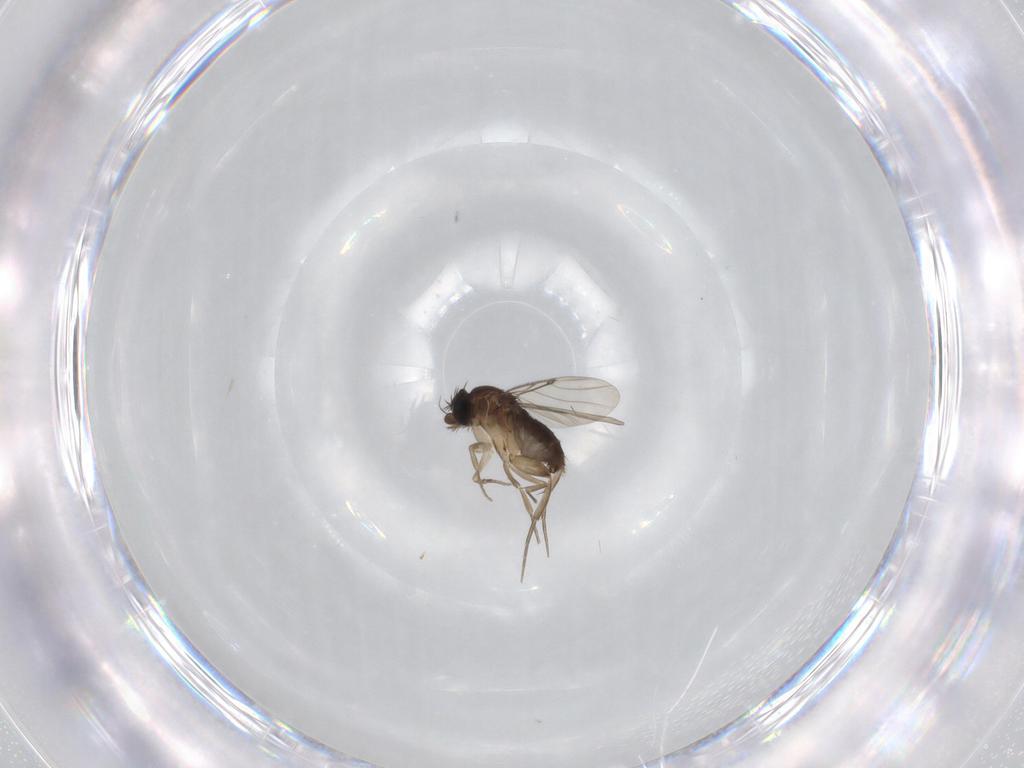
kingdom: Animalia
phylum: Arthropoda
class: Insecta
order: Diptera
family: Phoridae
